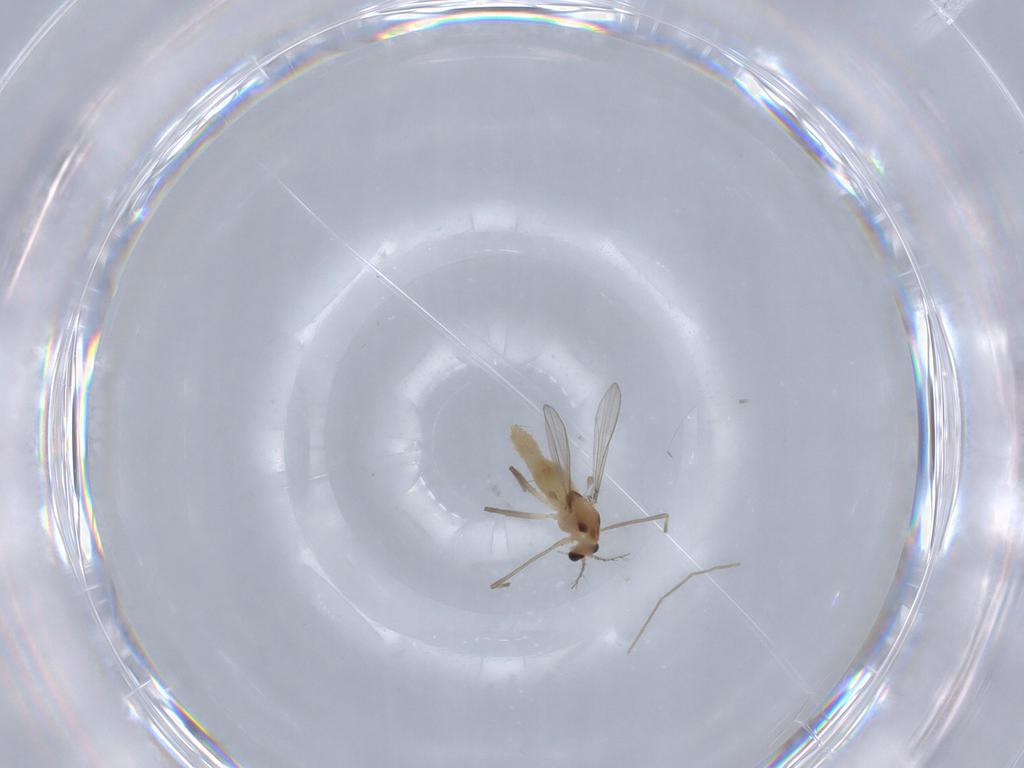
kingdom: Animalia
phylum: Arthropoda
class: Insecta
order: Diptera
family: Chironomidae
